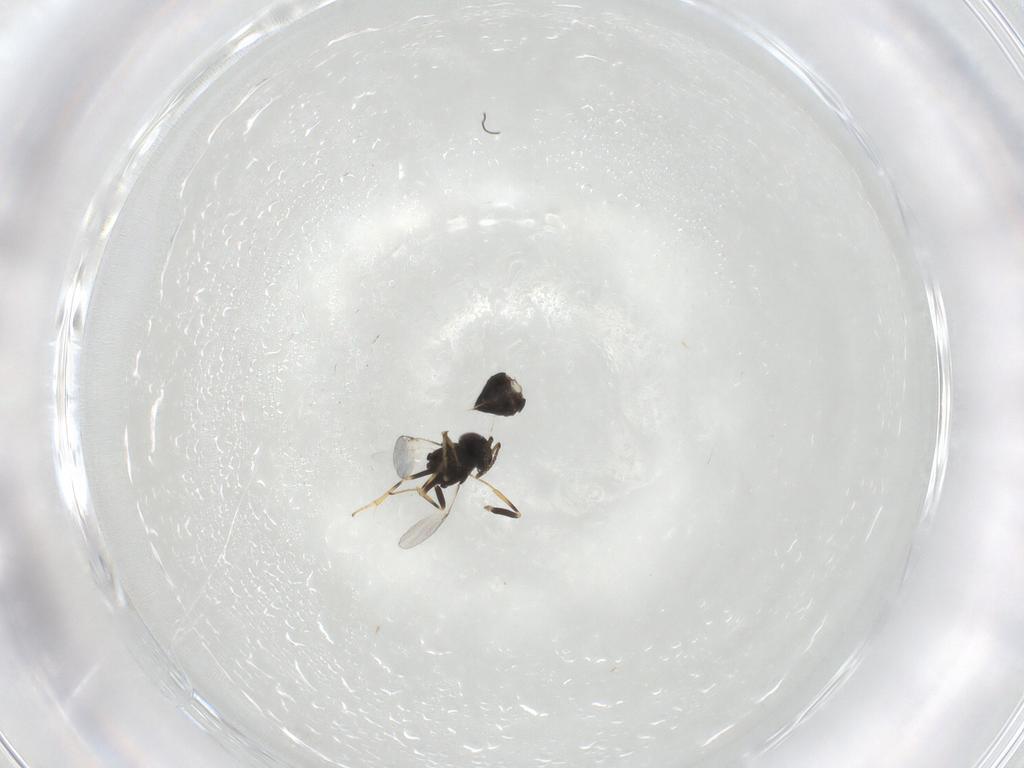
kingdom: Animalia
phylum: Arthropoda
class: Insecta
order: Hymenoptera
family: Encyrtidae
